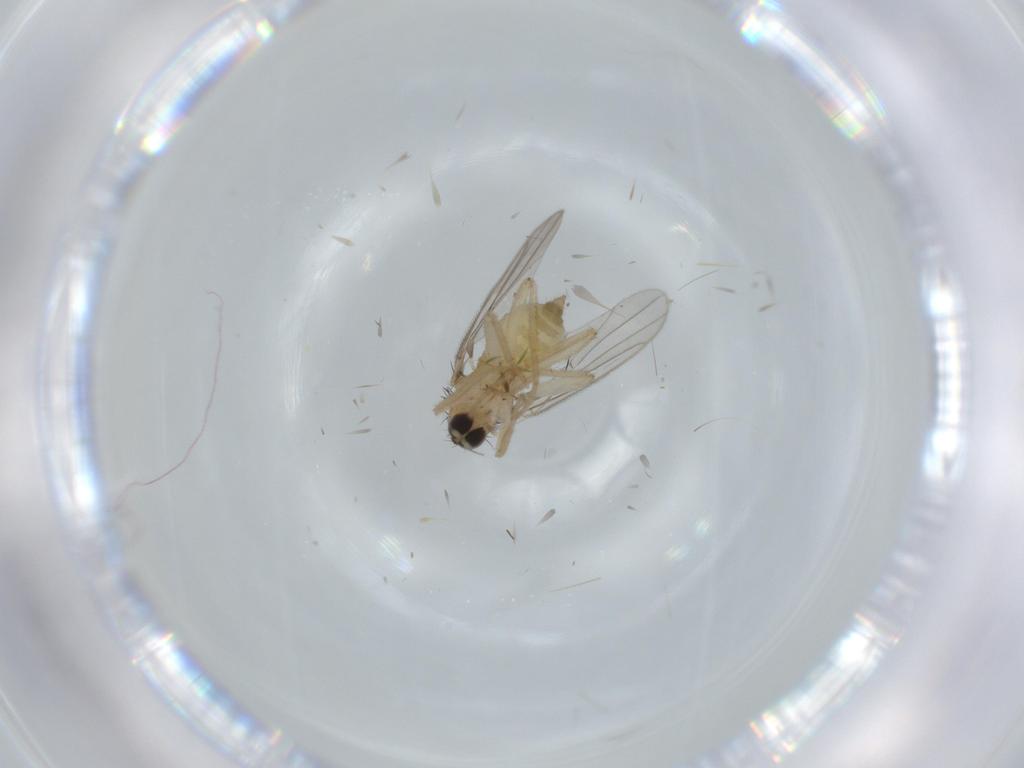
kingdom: Animalia
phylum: Arthropoda
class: Insecta
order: Diptera
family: Hybotidae
